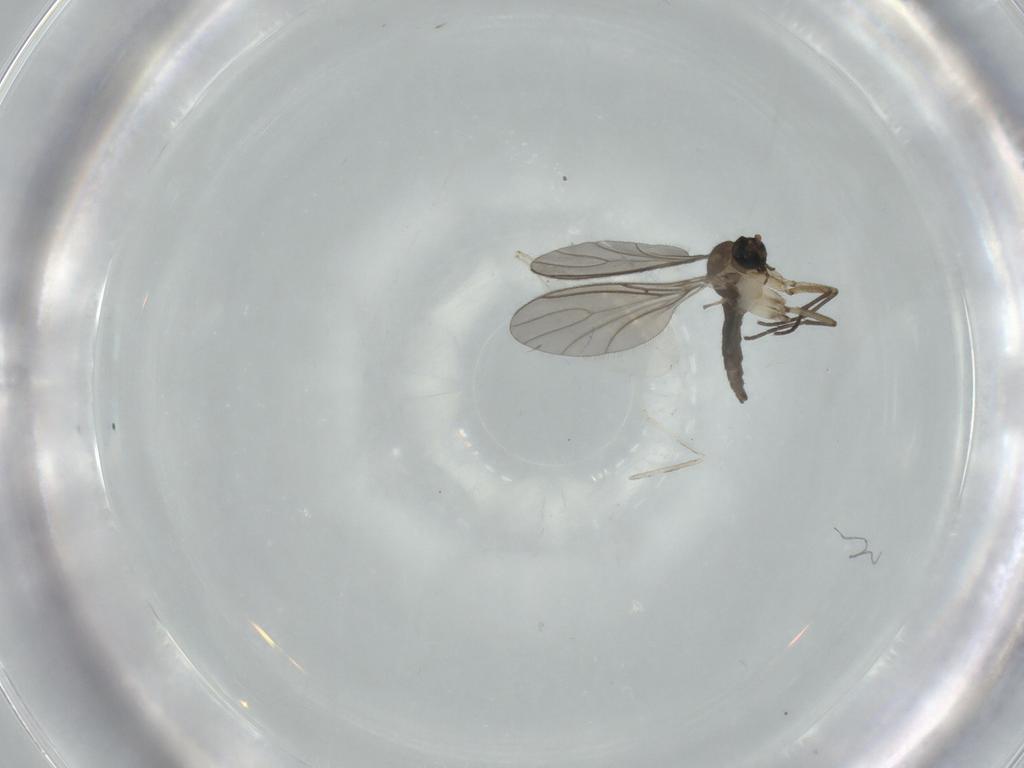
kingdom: Animalia
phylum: Arthropoda
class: Insecta
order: Diptera
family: Sciaridae
